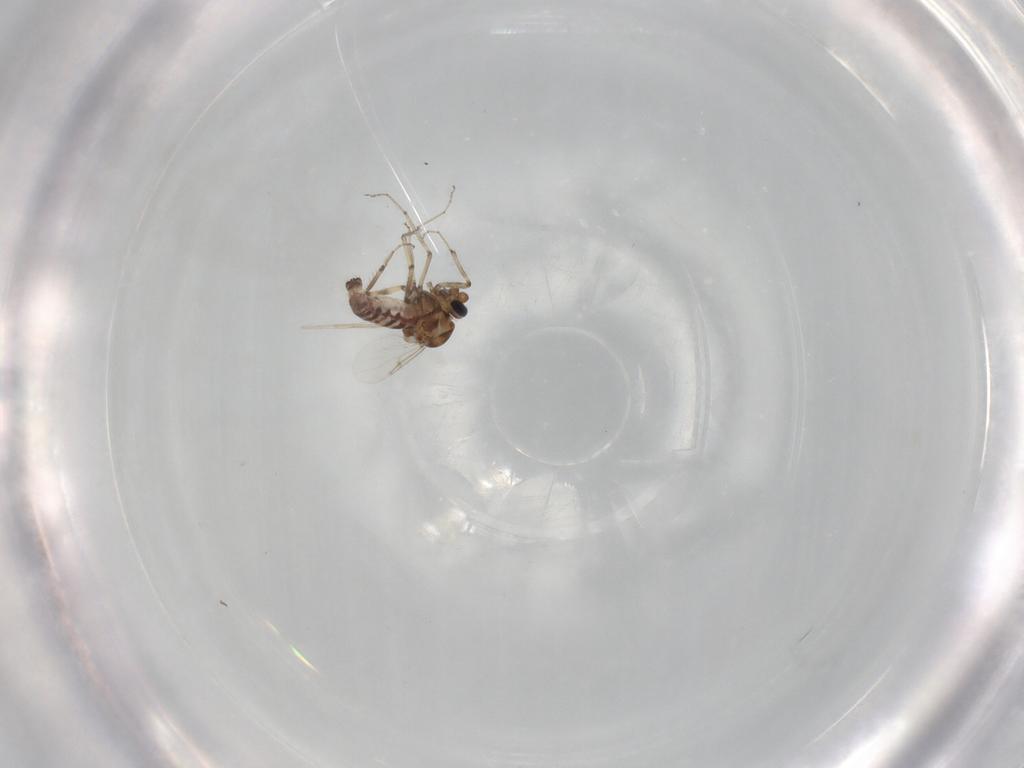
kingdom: Animalia
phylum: Arthropoda
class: Insecta
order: Diptera
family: Ceratopogonidae
